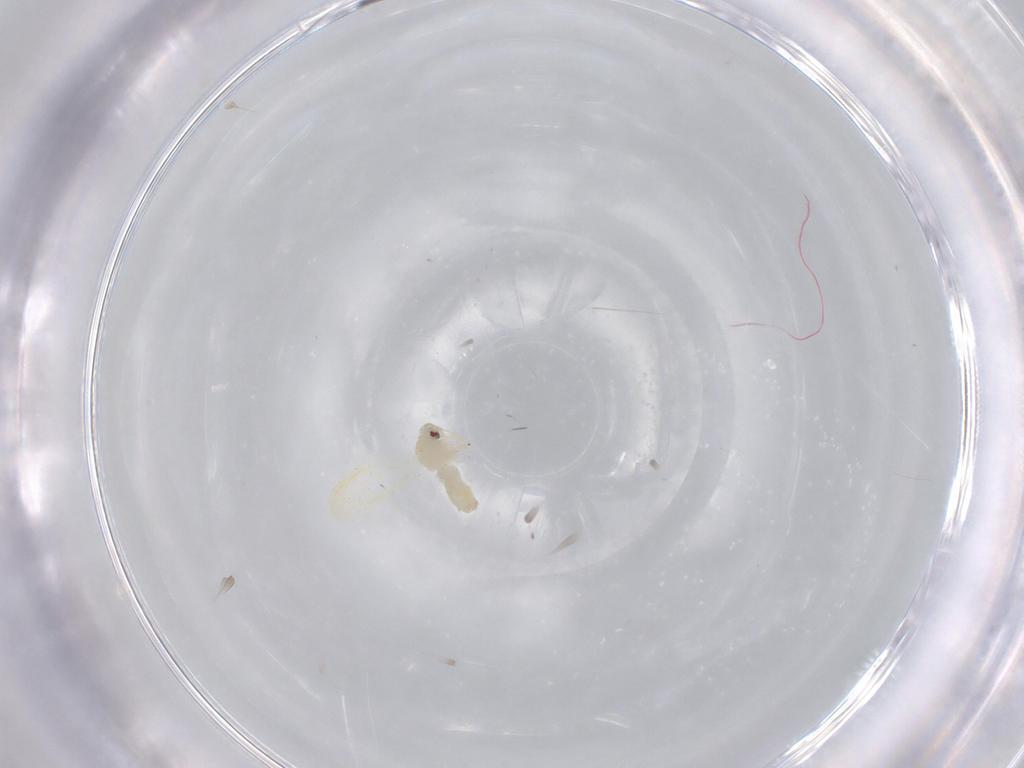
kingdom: Animalia
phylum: Arthropoda
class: Insecta
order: Hemiptera
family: Aleyrodidae
